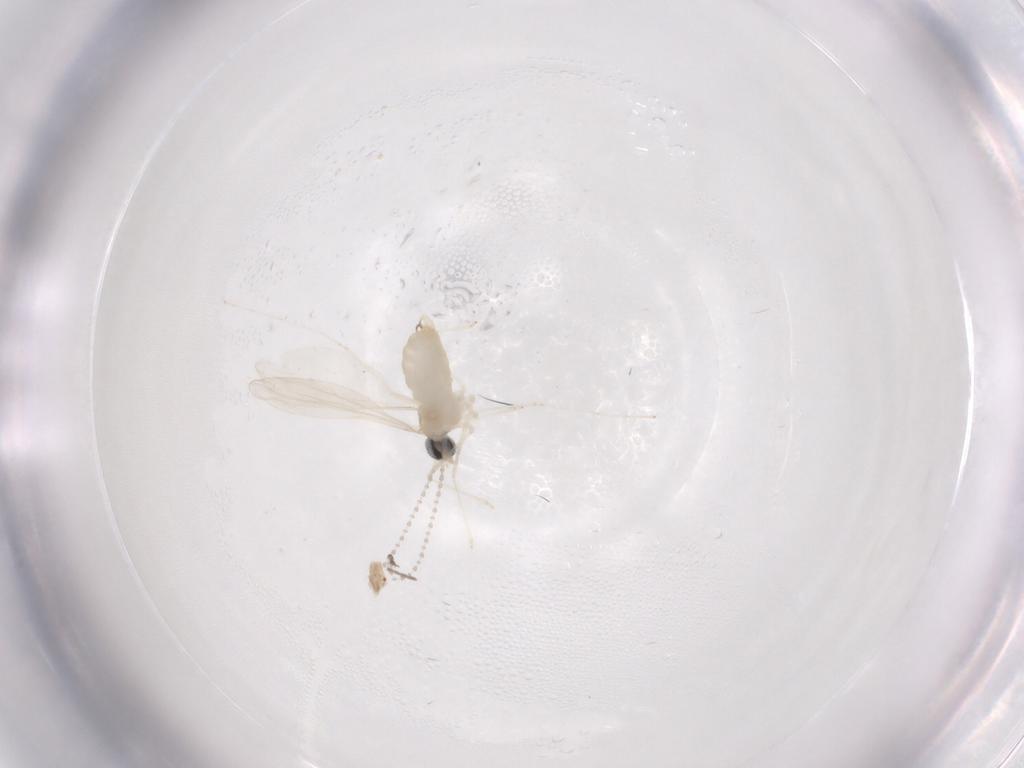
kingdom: Animalia
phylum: Arthropoda
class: Insecta
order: Diptera
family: Cecidomyiidae
